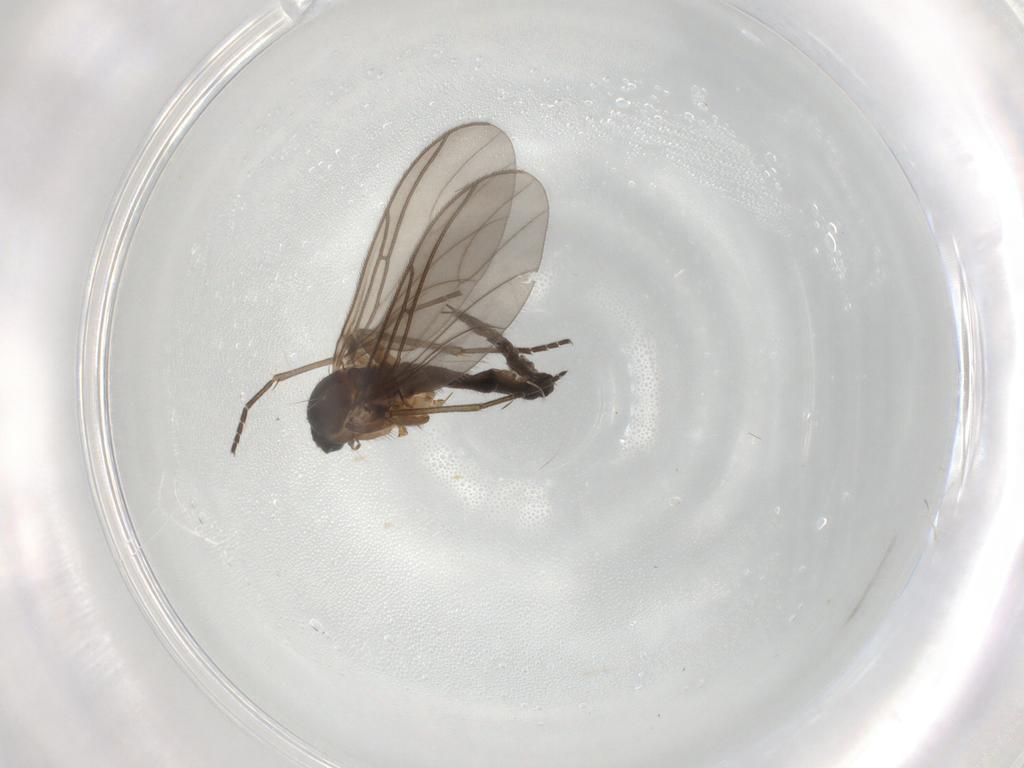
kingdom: Animalia
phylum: Arthropoda
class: Insecta
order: Diptera
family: Sciaridae
